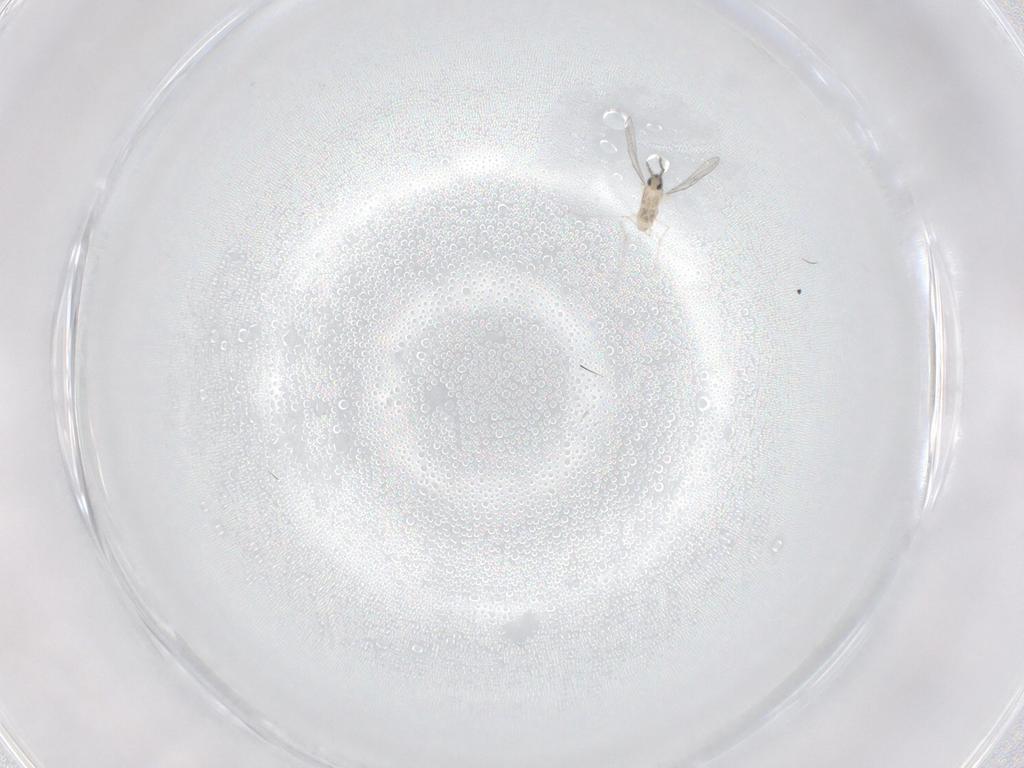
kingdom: Animalia
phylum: Arthropoda
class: Insecta
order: Diptera
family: Cecidomyiidae
